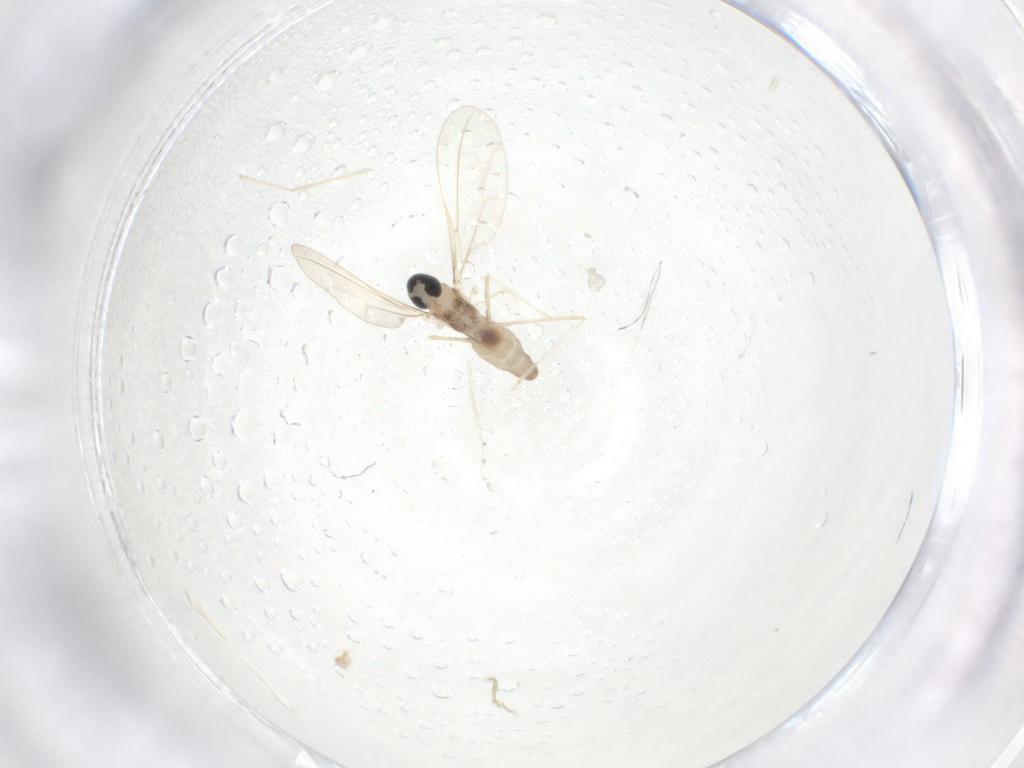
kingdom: Animalia
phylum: Arthropoda
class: Insecta
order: Diptera
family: Cecidomyiidae
